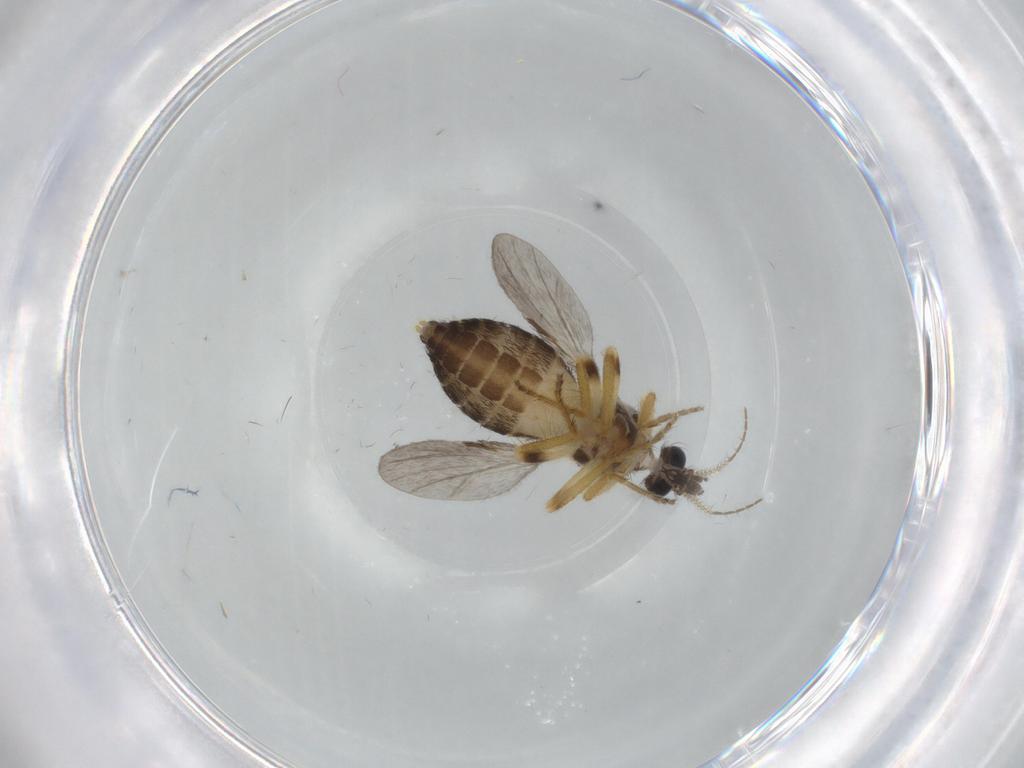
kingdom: Animalia
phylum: Arthropoda
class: Insecta
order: Diptera
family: Ceratopogonidae
